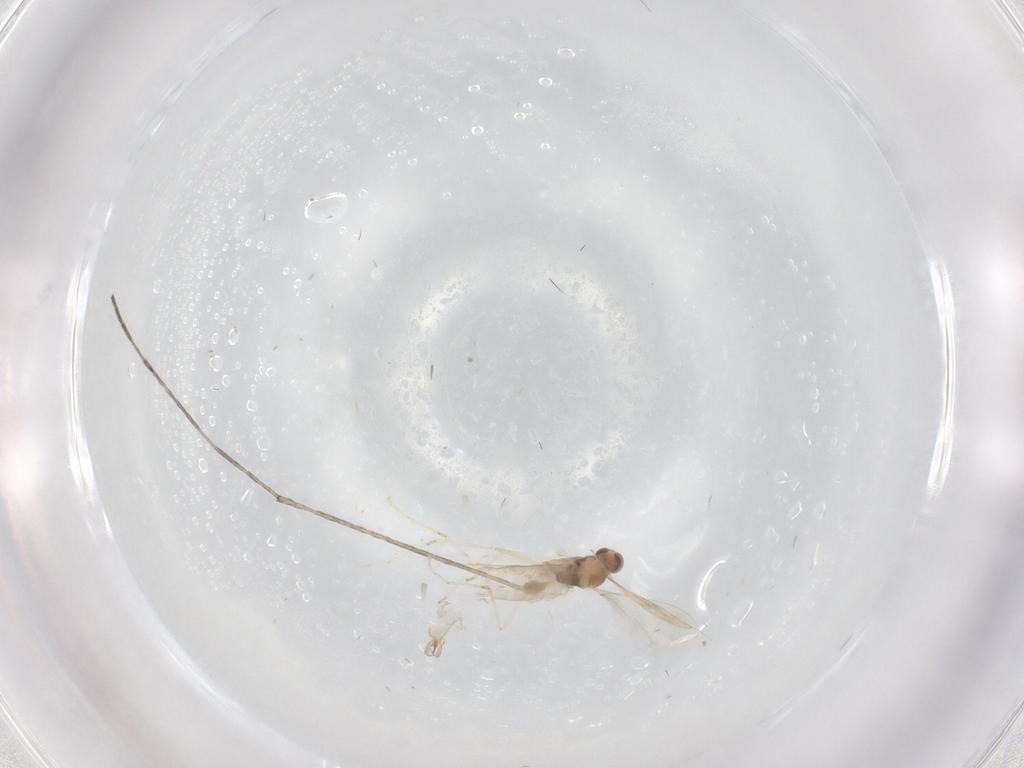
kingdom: Animalia
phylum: Arthropoda
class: Insecta
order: Diptera
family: Cecidomyiidae
